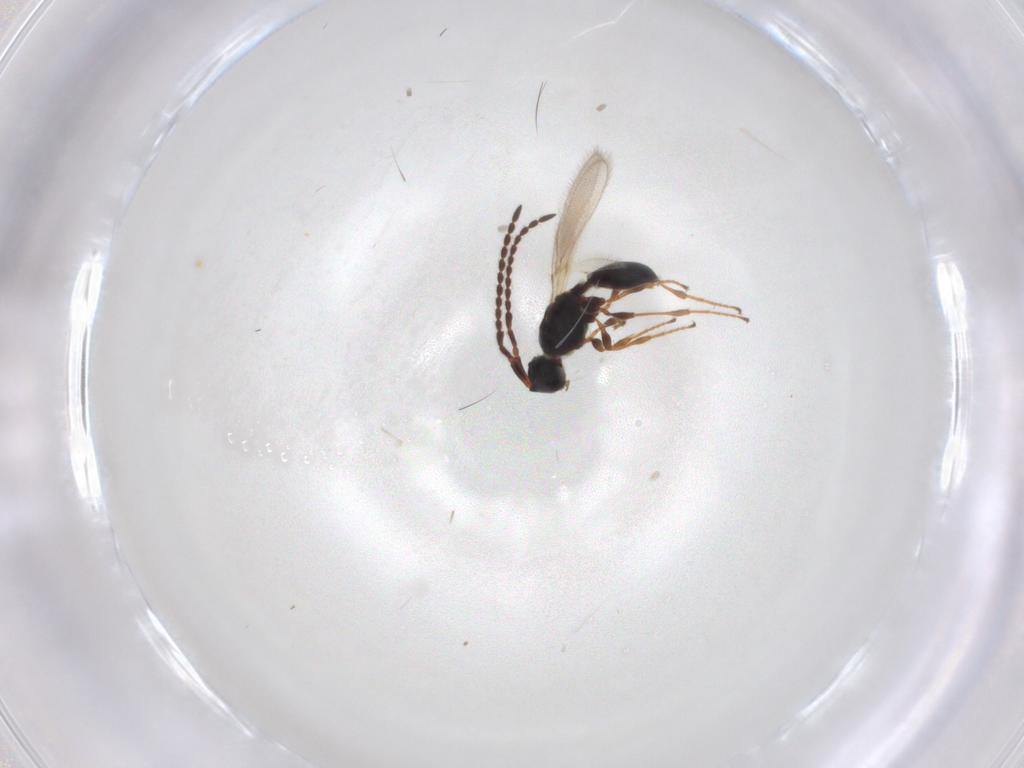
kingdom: Animalia
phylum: Arthropoda
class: Insecta
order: Hymenoptera
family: Diapriidae
